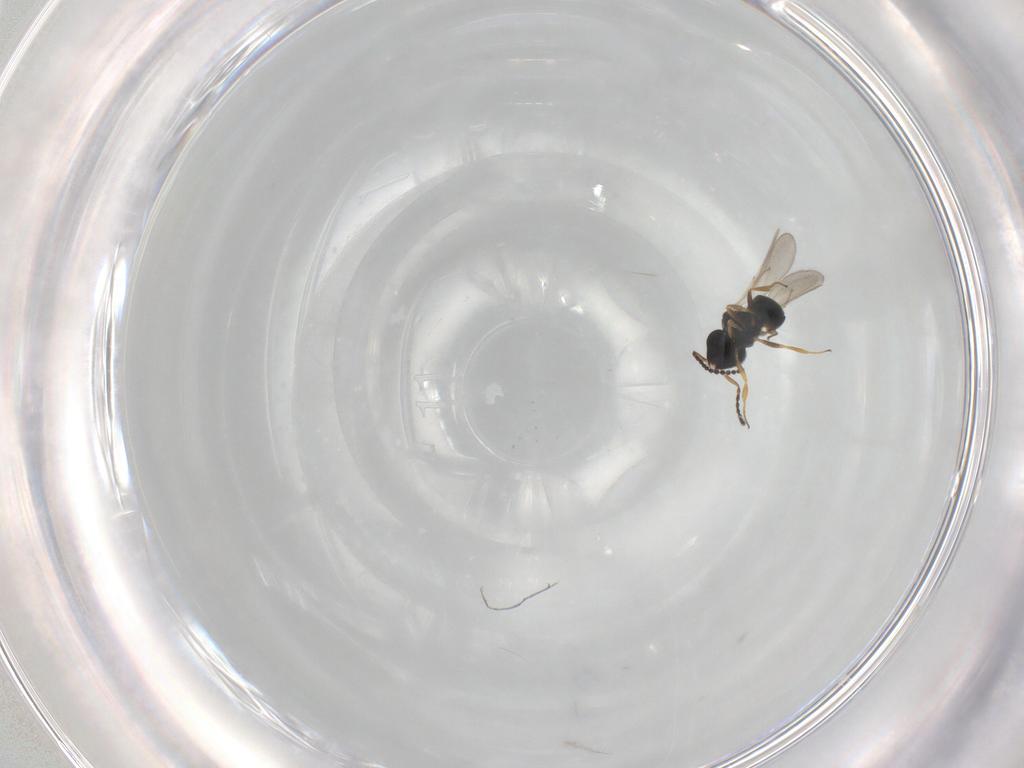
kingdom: Animalia
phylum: Arthropoda
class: Insecta
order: Hymenoptera
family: Scelionidae
